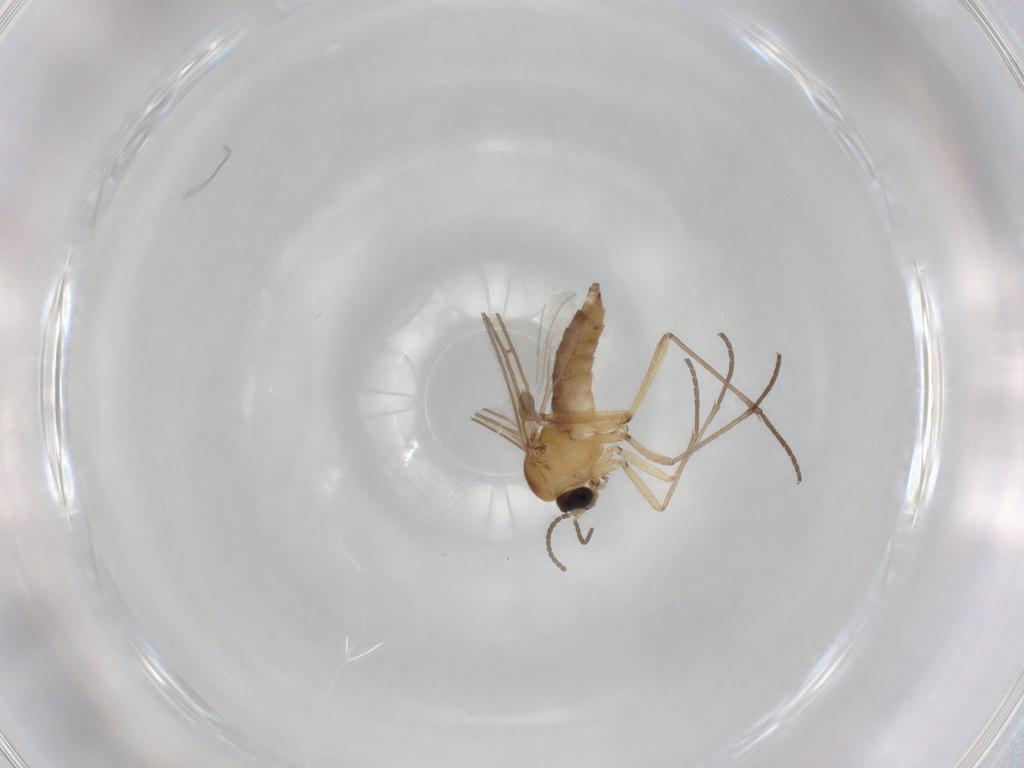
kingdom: Animalia
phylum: Arthropoda
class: Insecta
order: Diptera
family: Sciaridae
